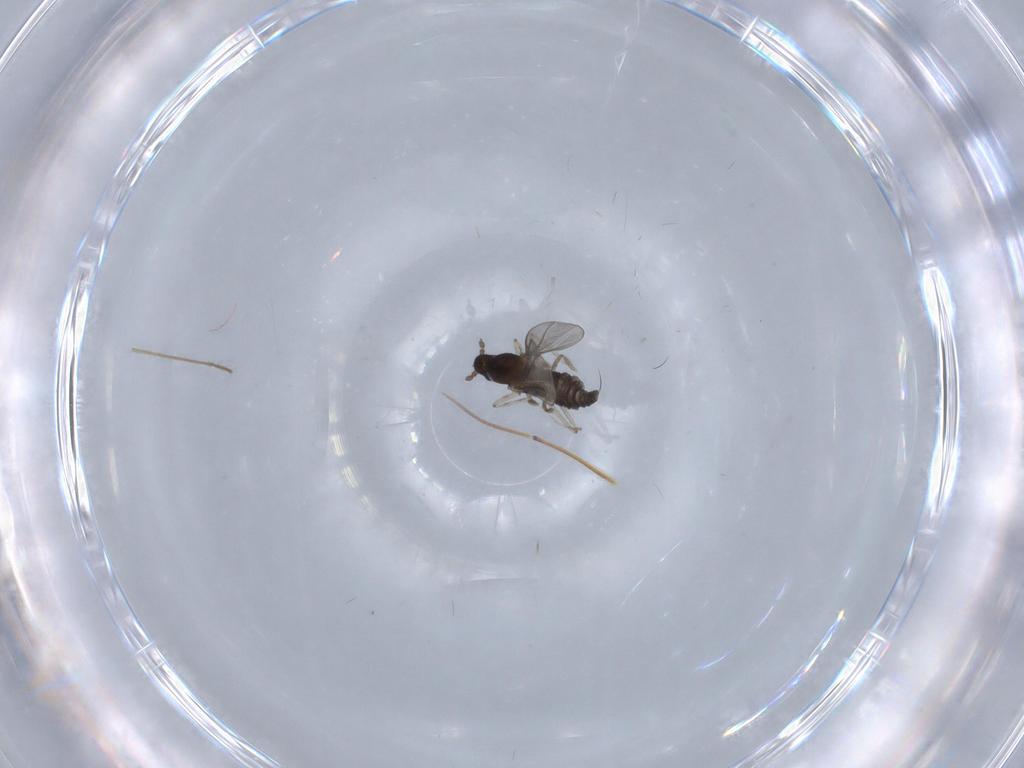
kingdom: Animalia
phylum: Arthropoda
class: Insecta
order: Diptera
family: Cecidomyiidae
